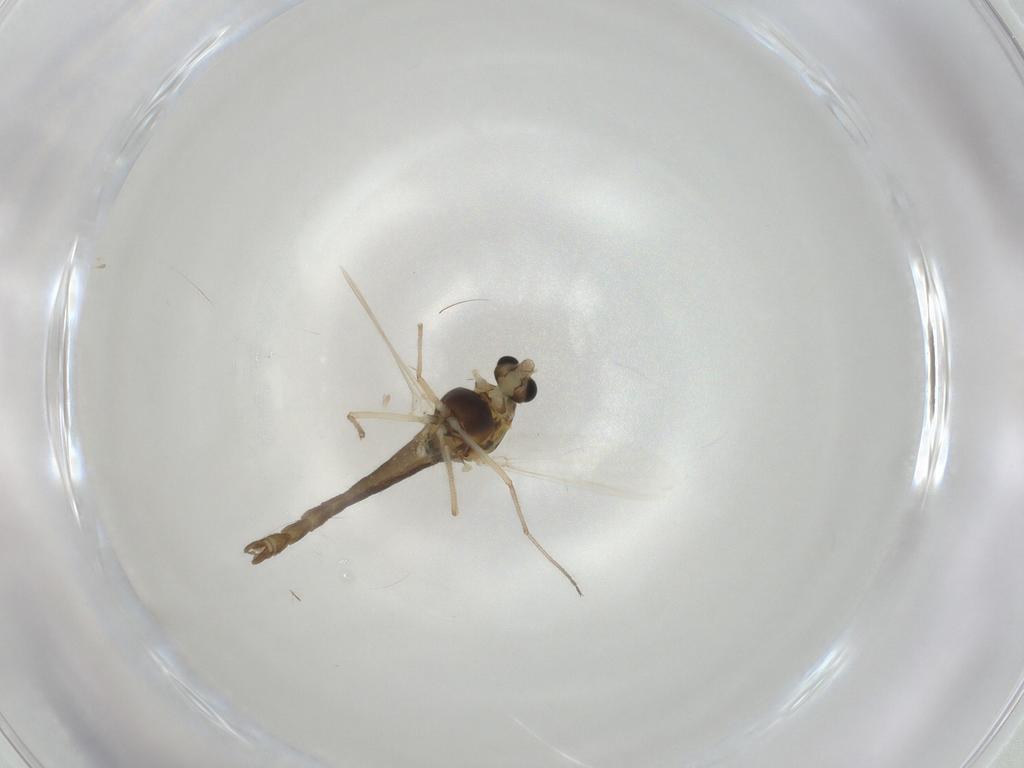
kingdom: Animalia
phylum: Arthropoda
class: Insecta
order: Diptera
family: Chironomidae
